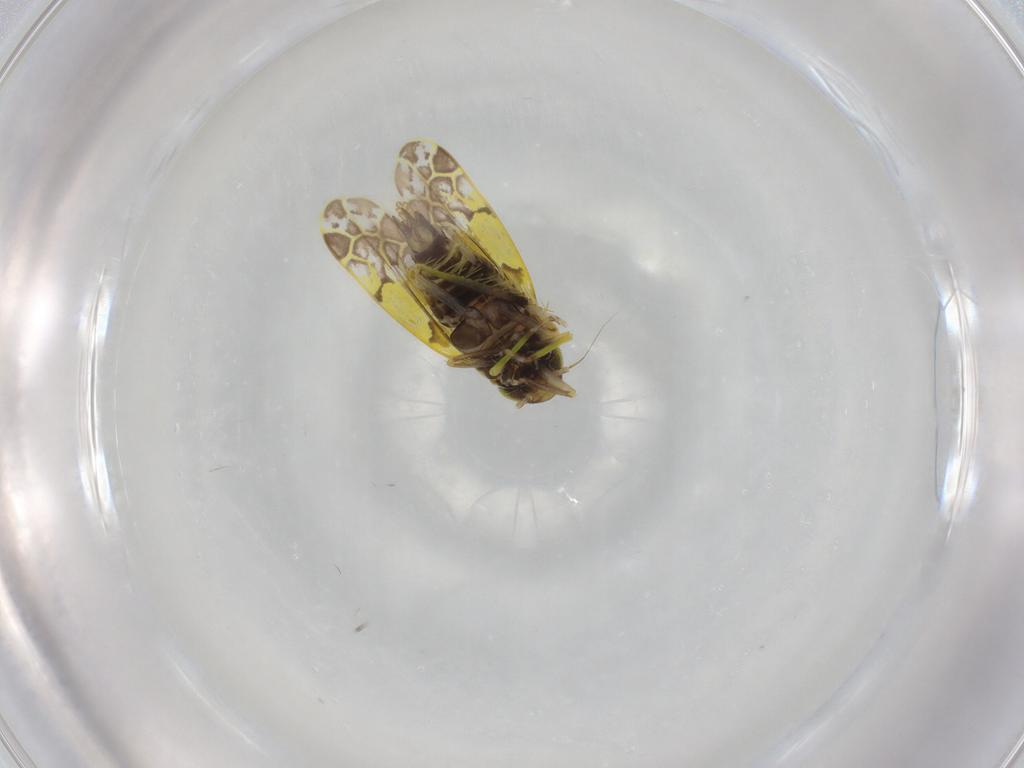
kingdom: Animalia
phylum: Arthropoda
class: Insecta
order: Hemiptera
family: Cicadellidae
